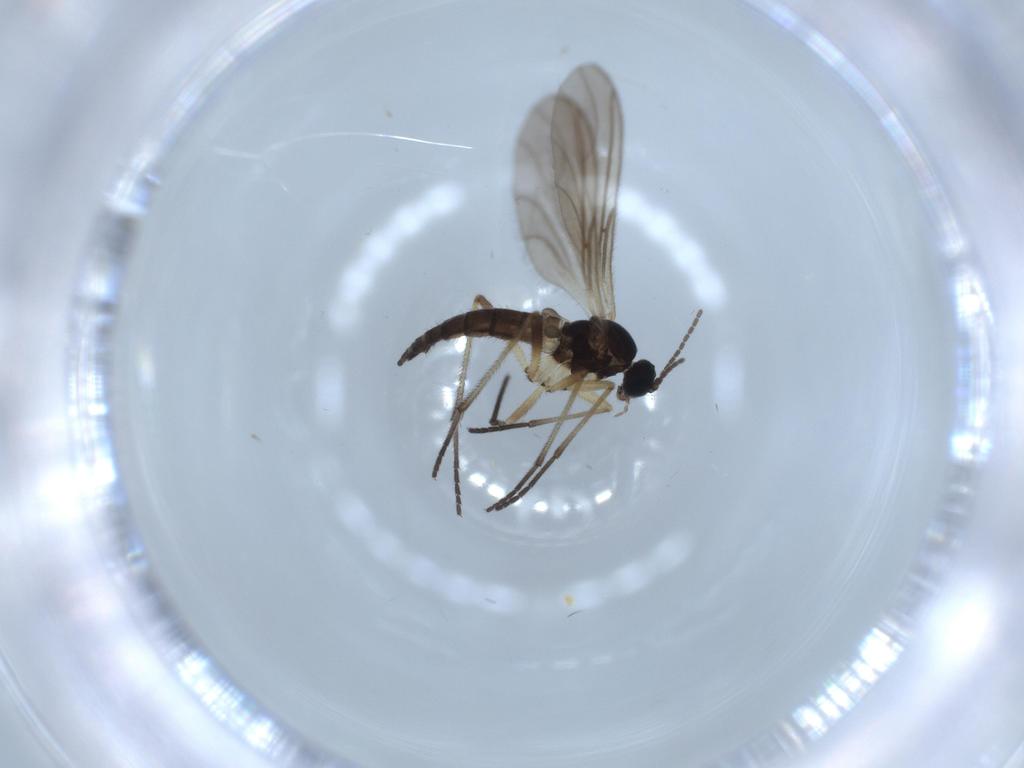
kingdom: Animalia
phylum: Arthropoda
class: Insecta
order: Diptera
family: Sciaridae
